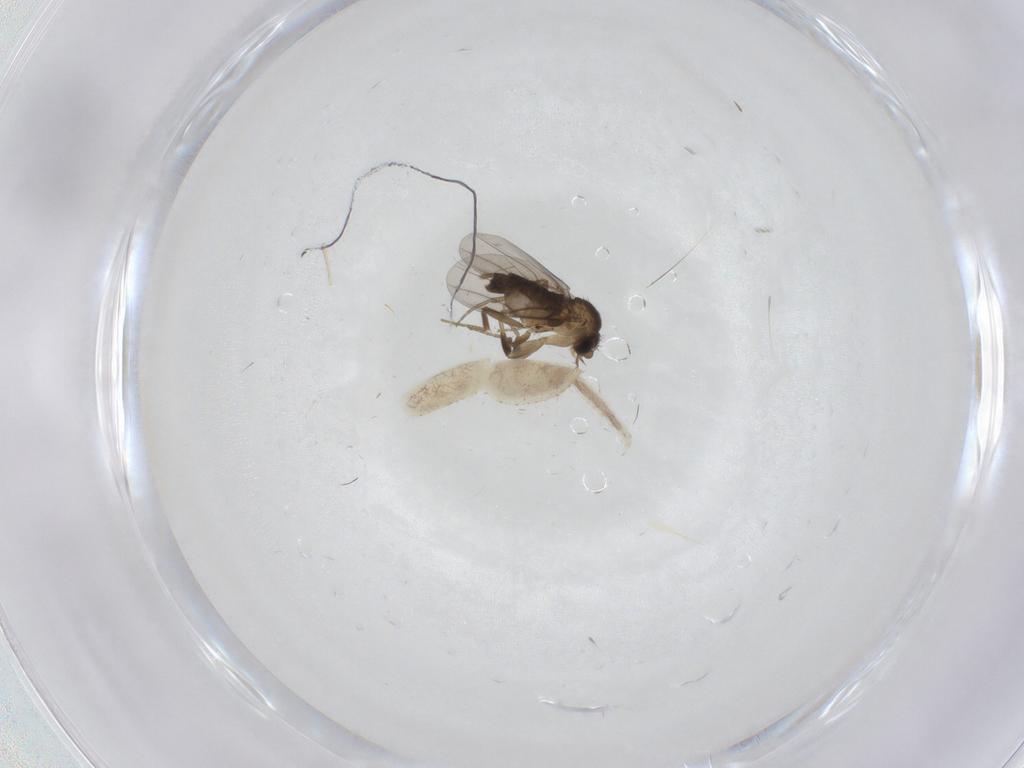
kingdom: Animalia
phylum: Arthropoda
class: Insecta
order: Diptera
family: Phoridae
